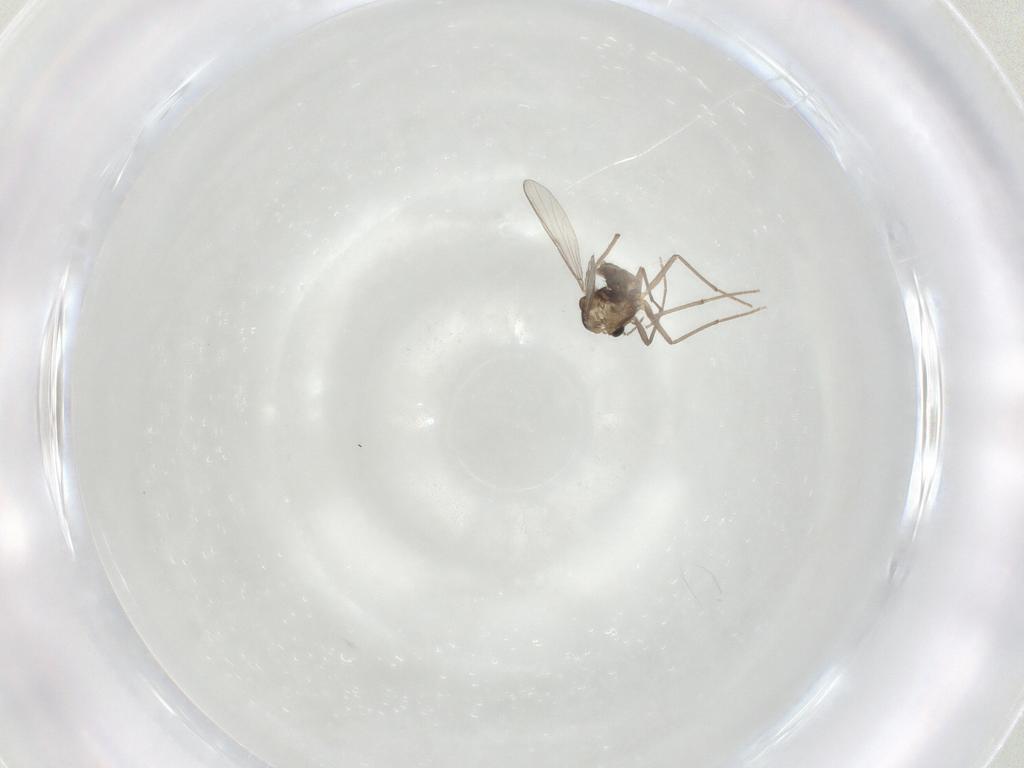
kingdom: Animalia
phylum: Arthropoda
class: Insecta
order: Diptera
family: Chironomidae
